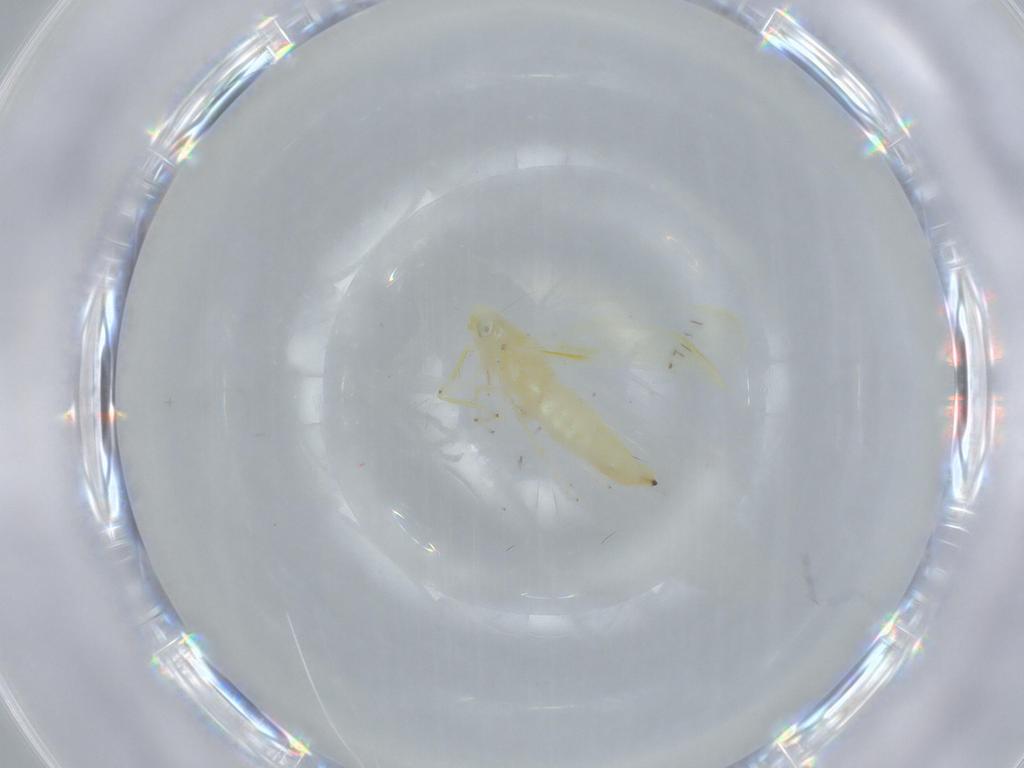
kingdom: Animalia
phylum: Arthropoda
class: Insecta
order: Hemiptera
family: Cicadellidae
